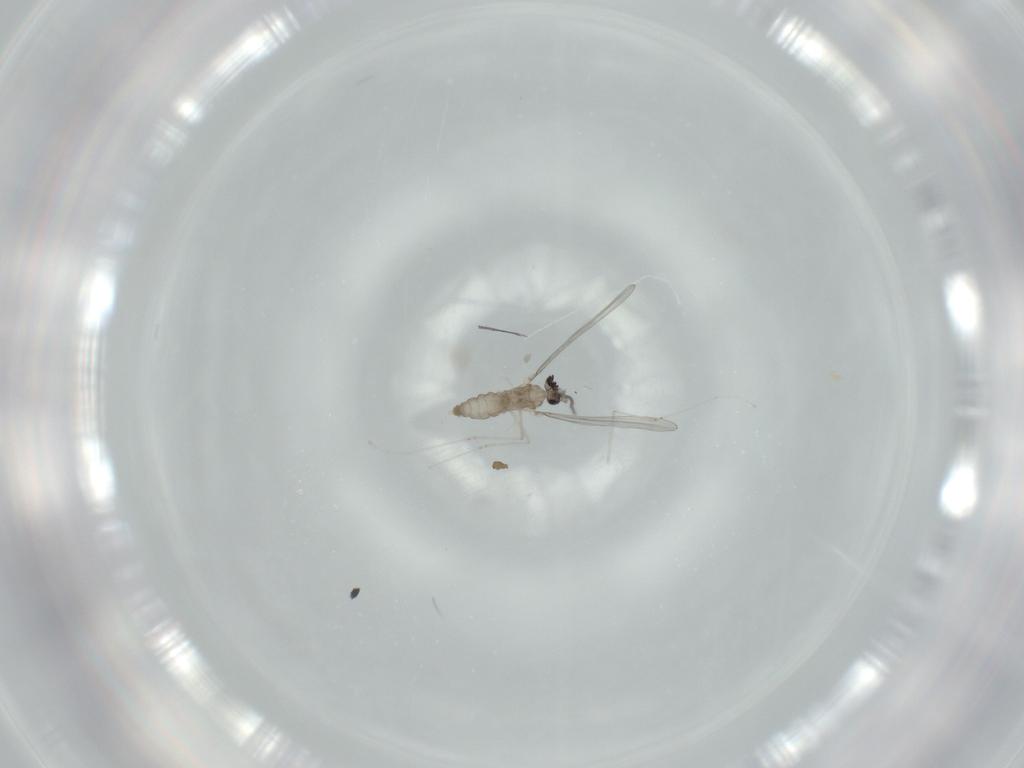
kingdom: Animalia
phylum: Arthropoda
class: Insecta
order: Diptera
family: Cecidomyiidae
